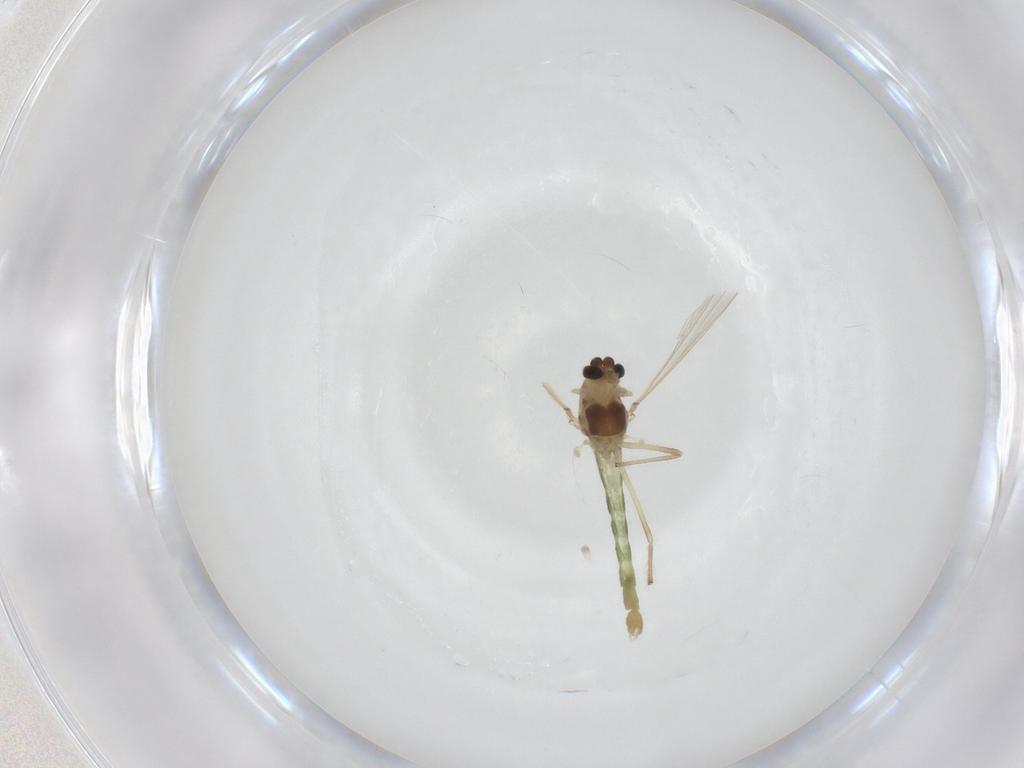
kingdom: Animalia
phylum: Arthropoda
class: Insecta
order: Diptera
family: Chironomidae
